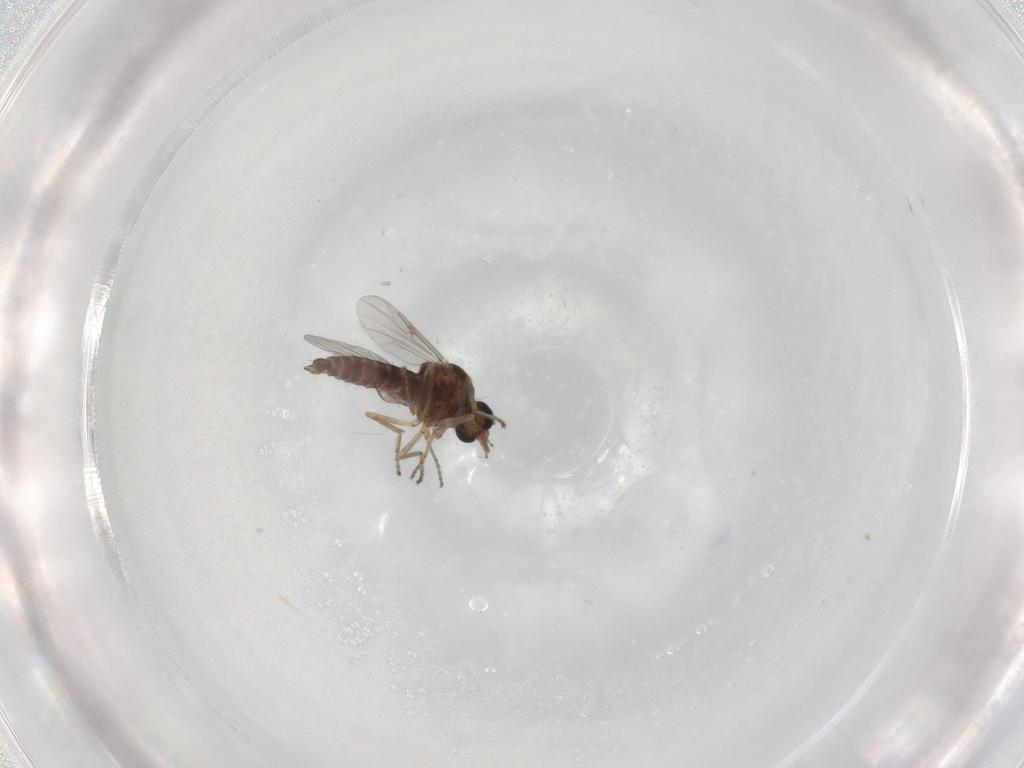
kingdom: Animalia
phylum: Arthropoda
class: Insecta
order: Diptera
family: Ceratopogonidae
